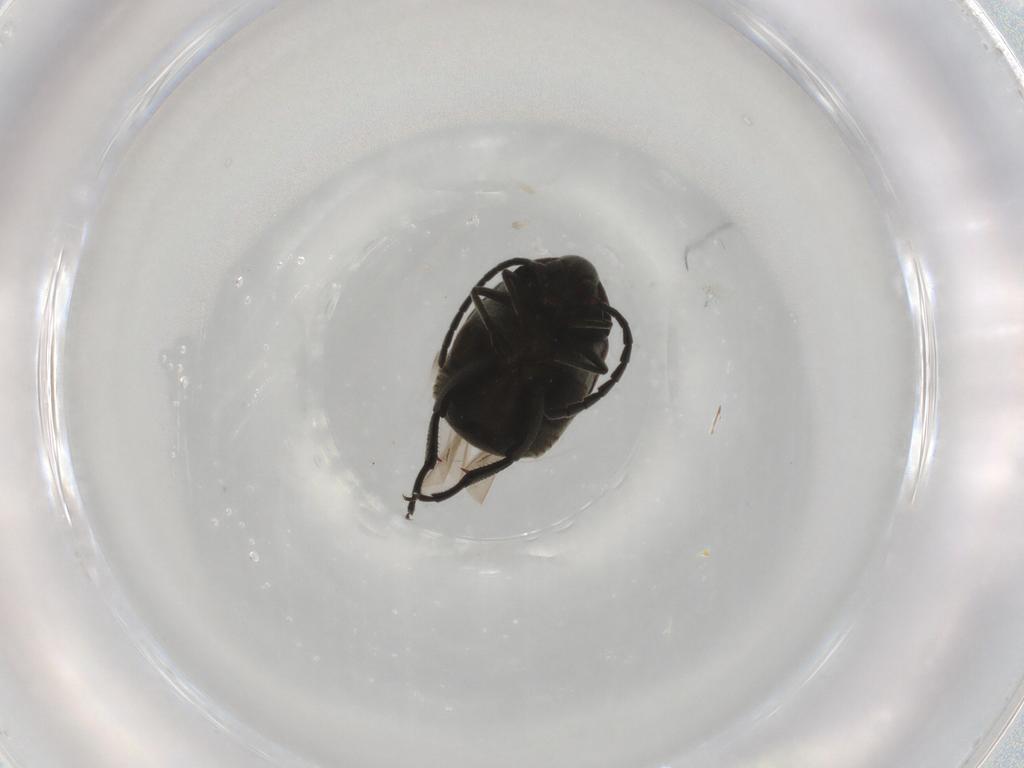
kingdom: Animalia
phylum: Arthropoda
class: Insecta
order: Coleoptera
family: Chrysomelidae
